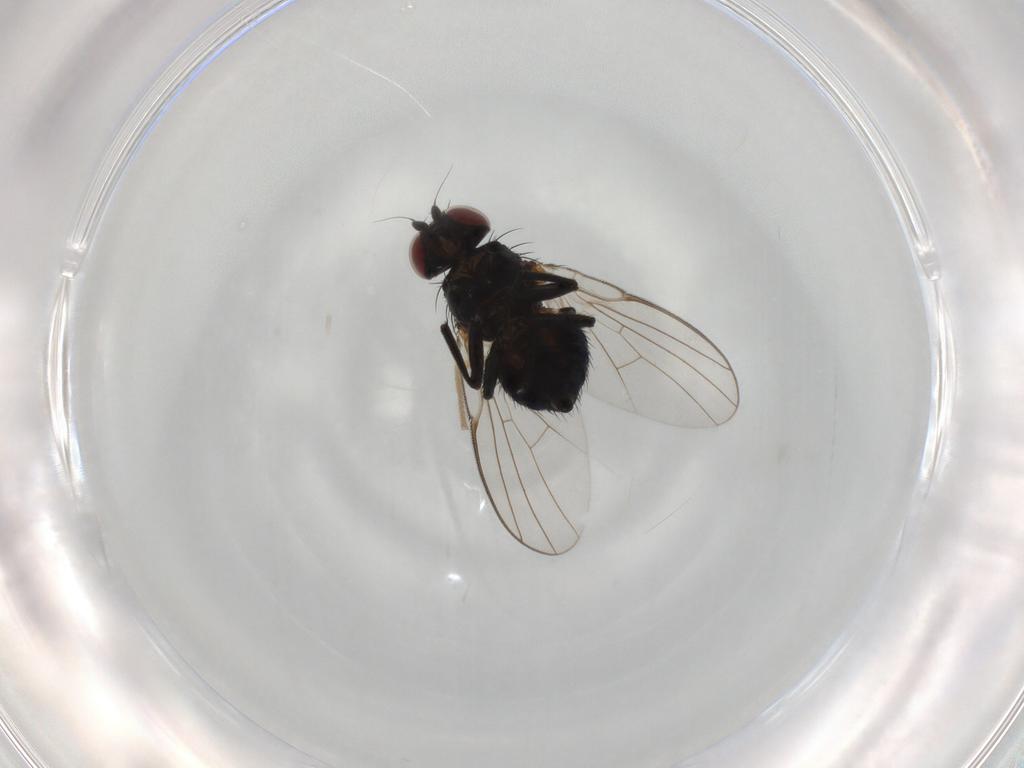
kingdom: Animalia
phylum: Arthropoda
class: Insecta
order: Diptera
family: Agromyzidae
